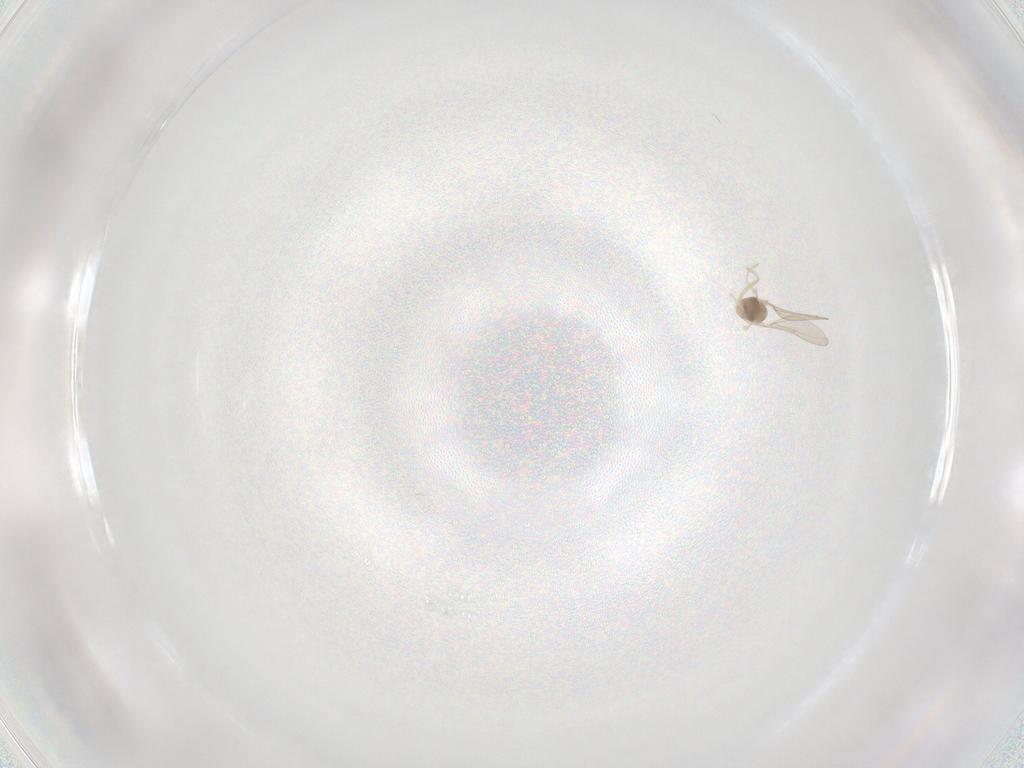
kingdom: Animalia
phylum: Arthropoda
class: Insecta
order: Diptera
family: Cecidomyiidae
